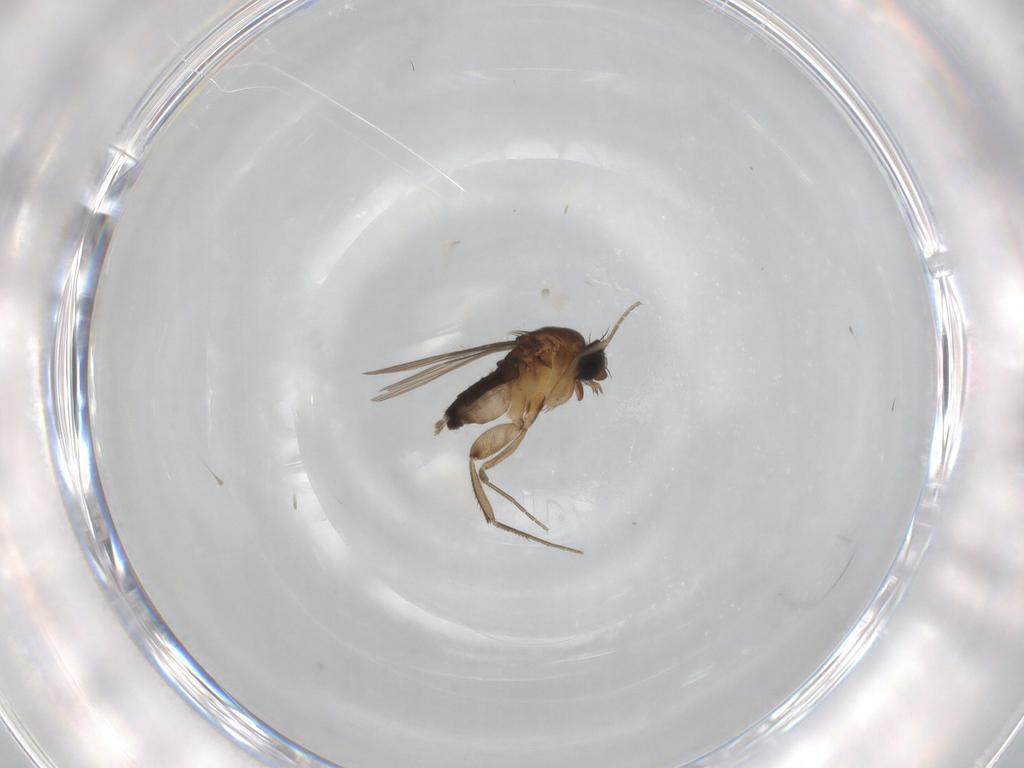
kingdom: Animalia
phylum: Arthropoda
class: Insecta
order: Diptera
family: Phoridae
